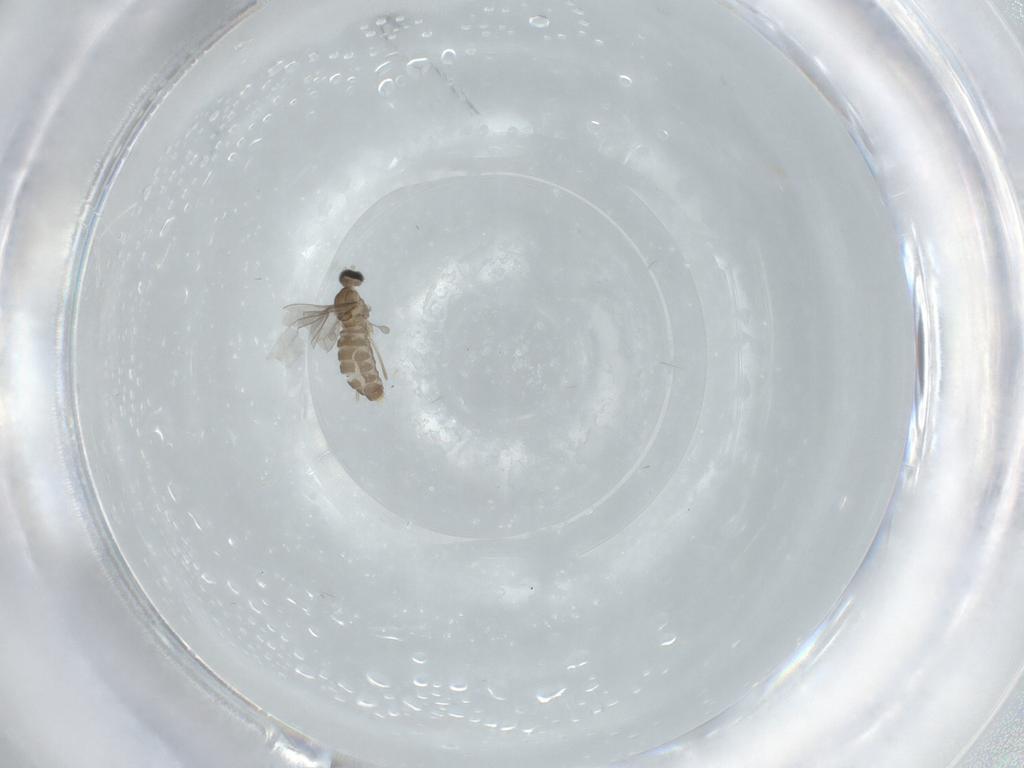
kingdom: Animalia
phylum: Arthropoda
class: Insecta
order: Diptera
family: Cecidomyiidae
